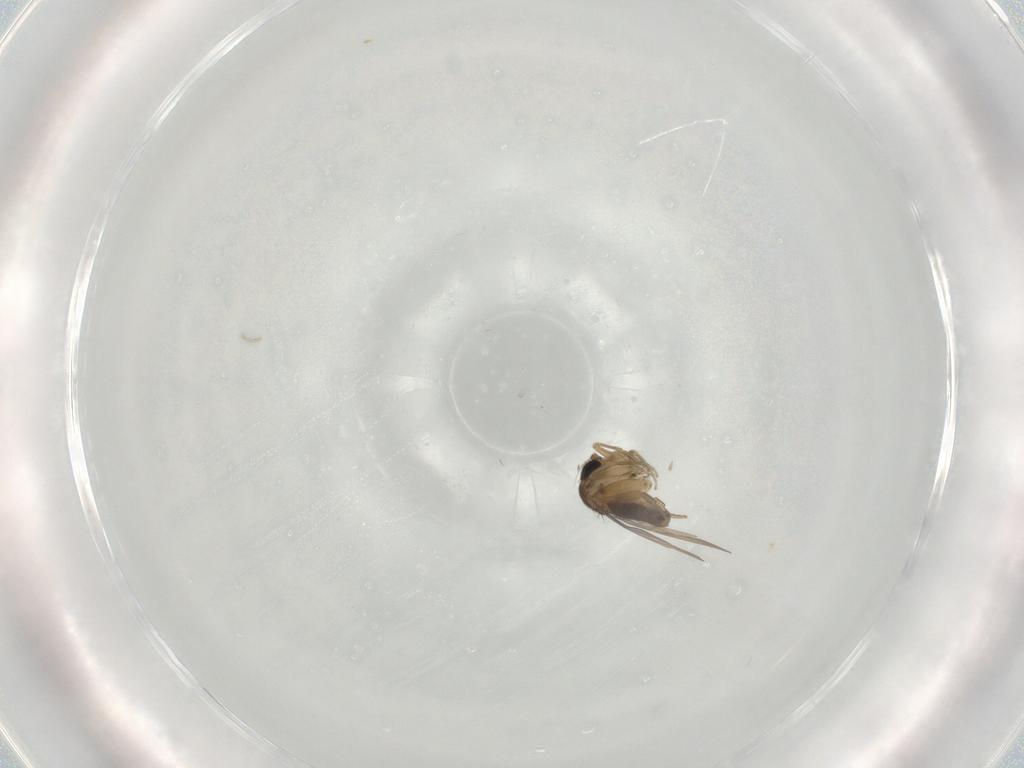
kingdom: Animalia
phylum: Arthropoda
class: Insecta
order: Diptera
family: Phoridae
